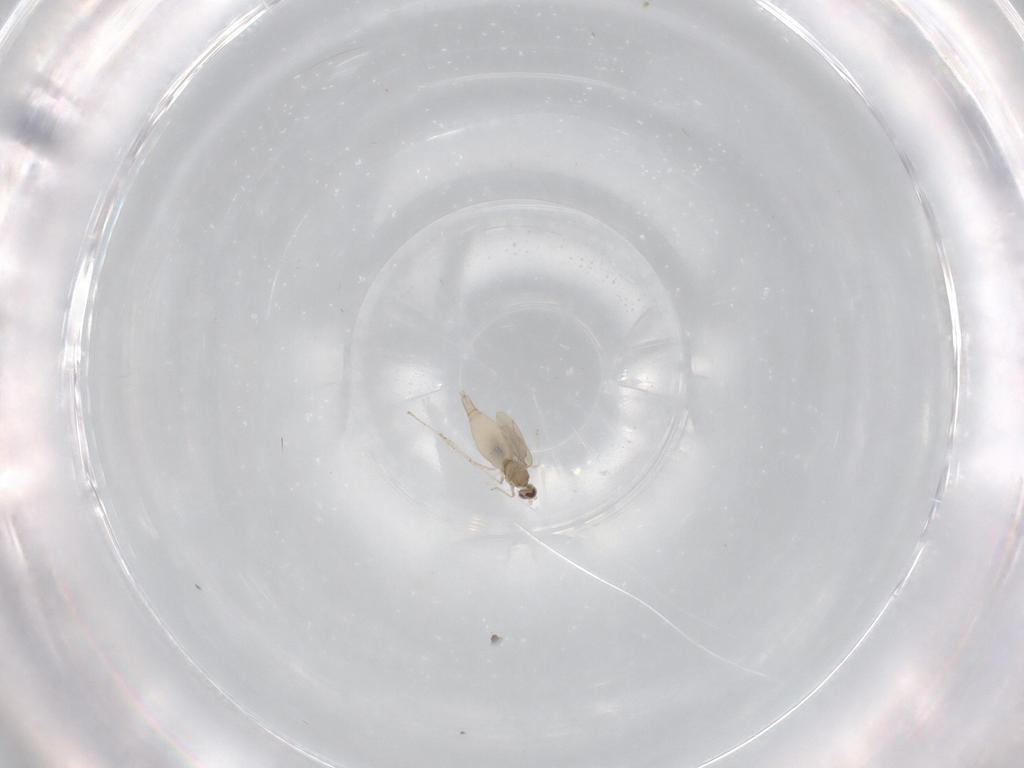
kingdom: Animalia
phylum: Arthropoda
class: Insecta
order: Diptera
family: Cecidomyiidae
